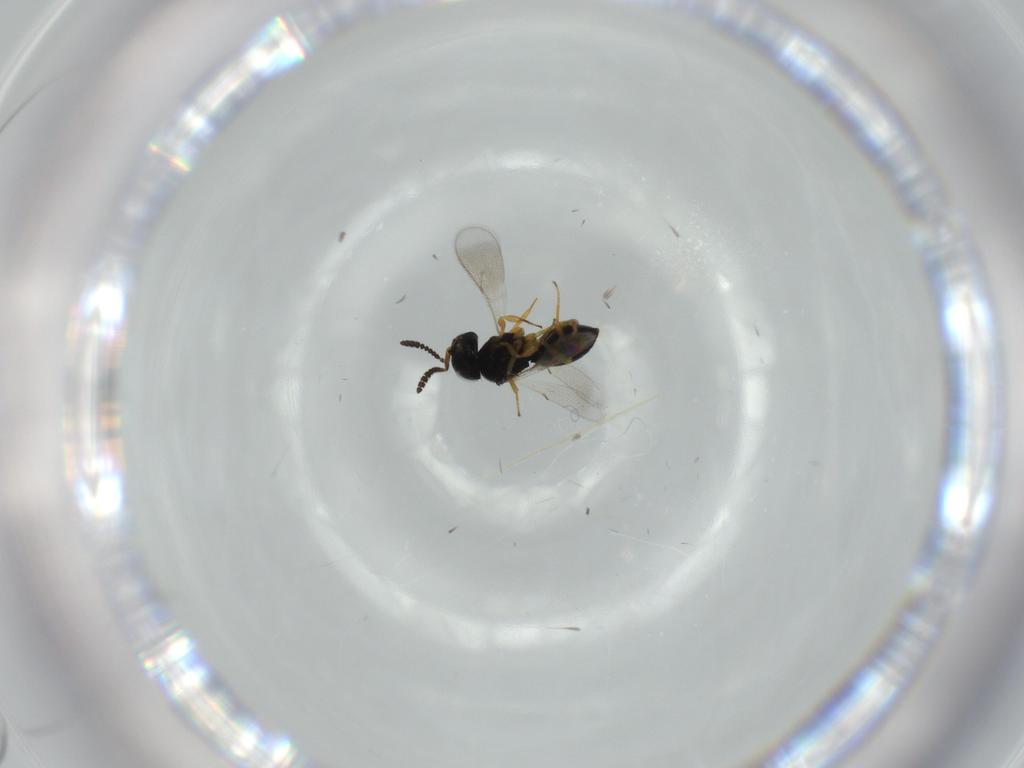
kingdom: Animalia
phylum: Arthropoda
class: Insecta
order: Hymenoptera
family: Scelionidae
